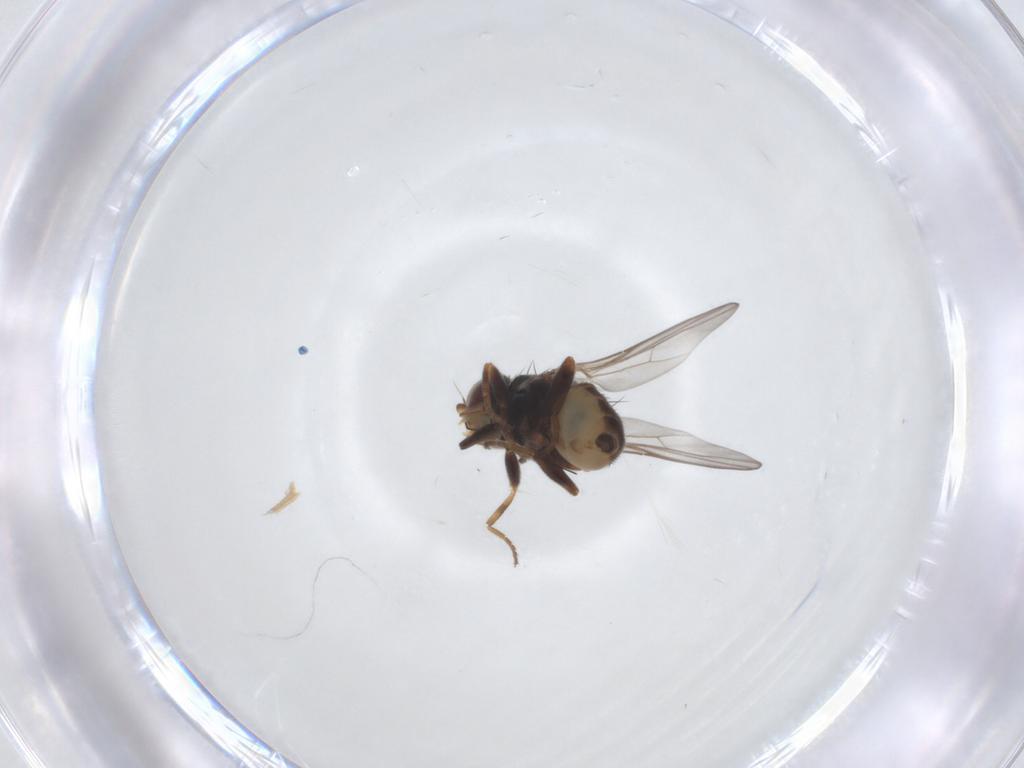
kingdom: Animalia
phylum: Arthropoda
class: Insecta
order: Diptera
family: Chloropidae
